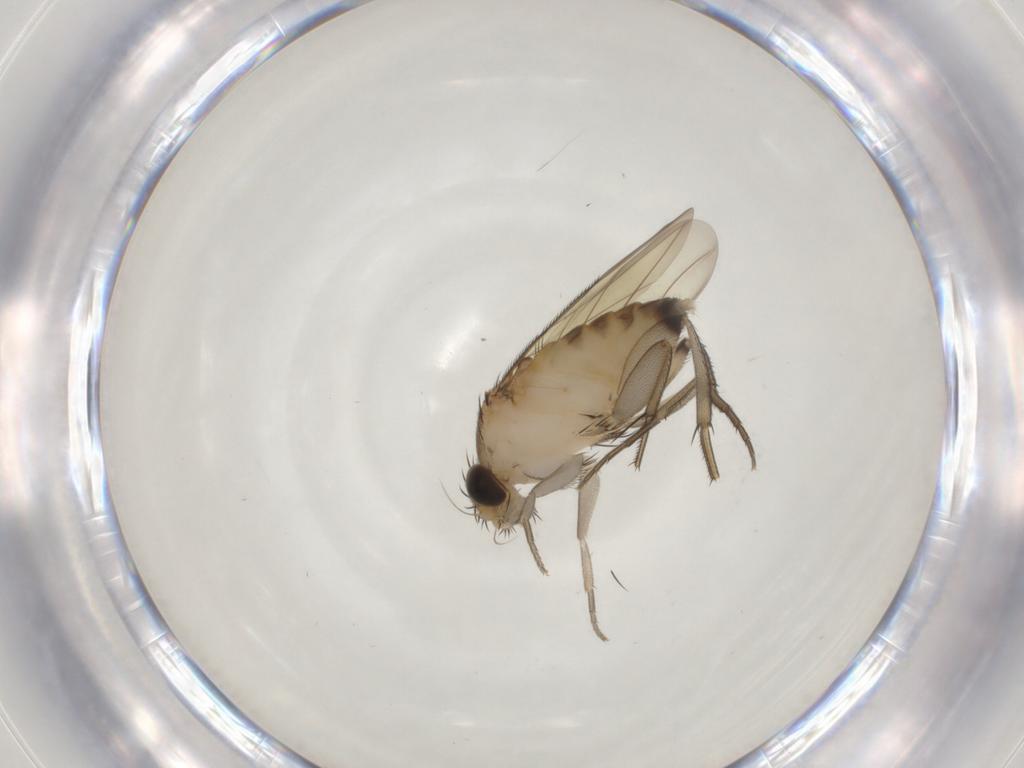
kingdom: Animalia
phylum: Arthropoda
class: Insecta
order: Diptera
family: Phoridae
